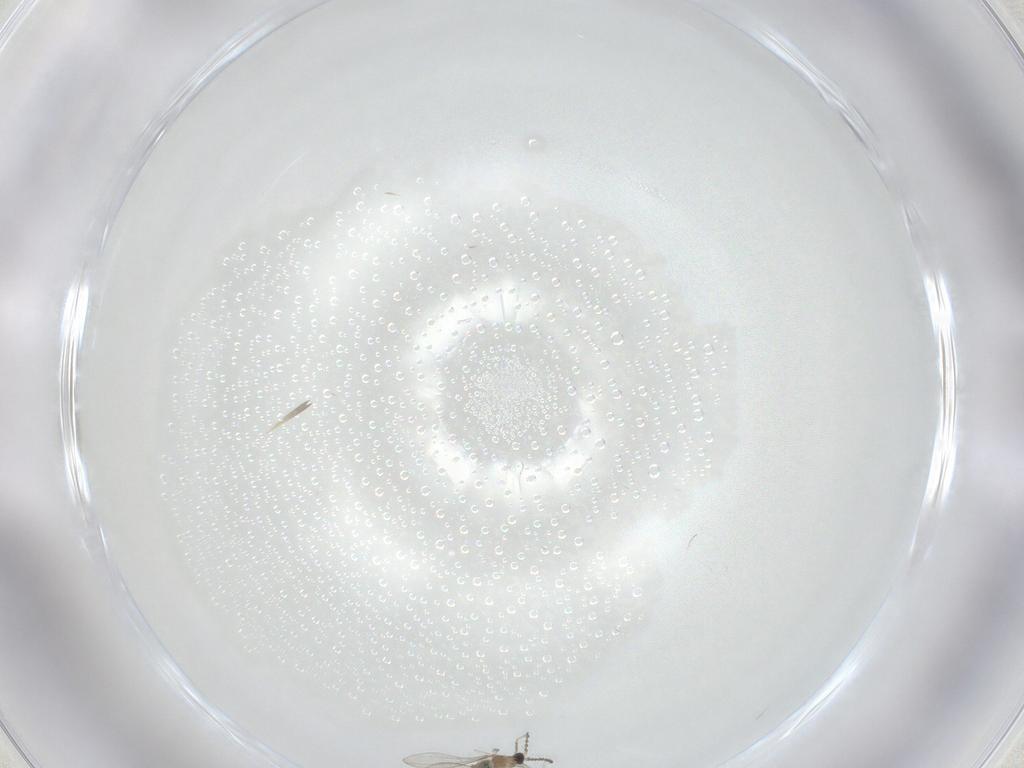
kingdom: Animalia
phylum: Arthropoda
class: Insecta
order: Diptera
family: Cecidomyiidae
